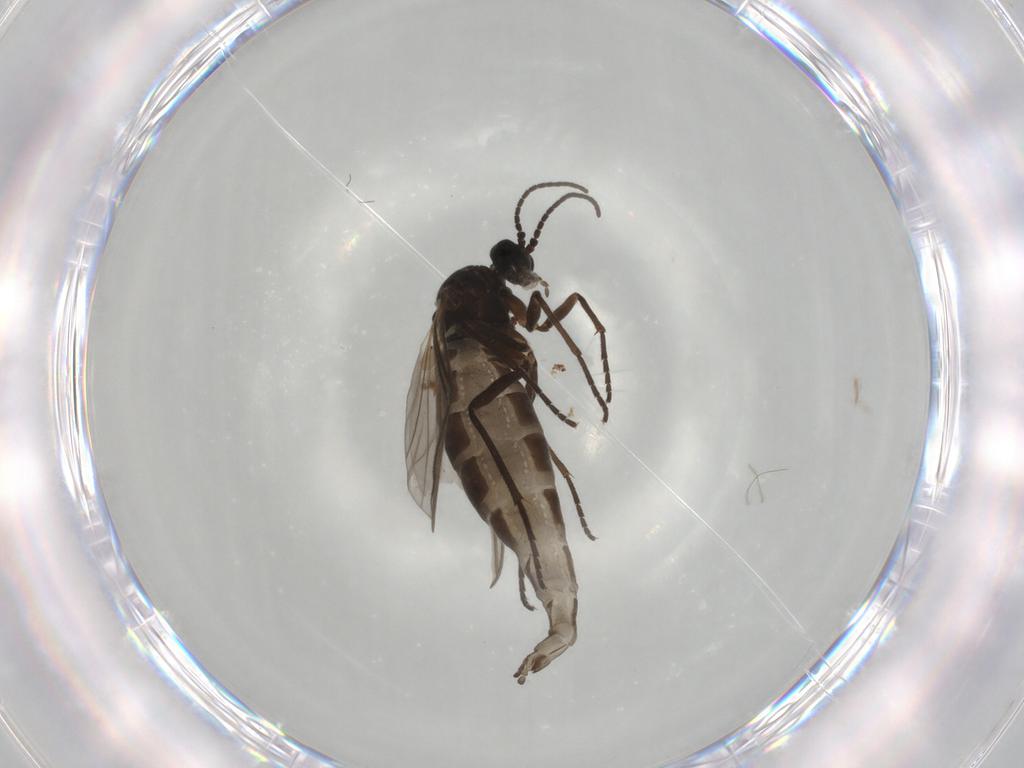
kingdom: Animalia
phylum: Arthropoda
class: Insecta
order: Diptera
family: Sciaridae
